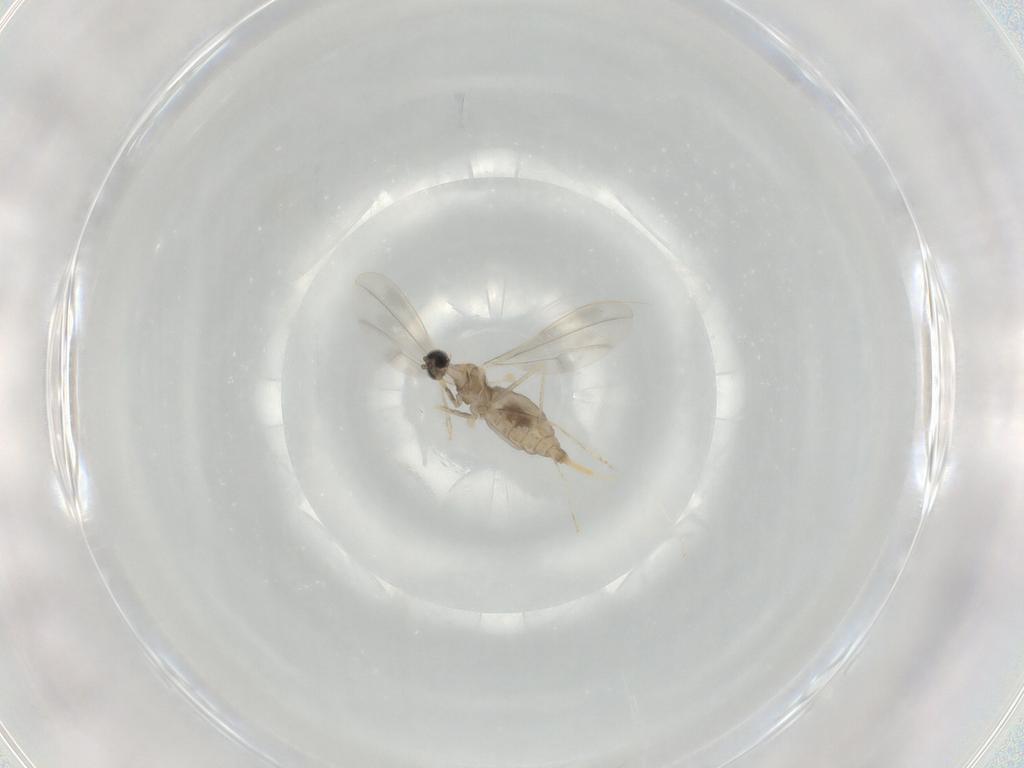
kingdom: Animalia
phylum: Arthropoda
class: Insecta
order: Diptera
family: Cecidomyiidae
